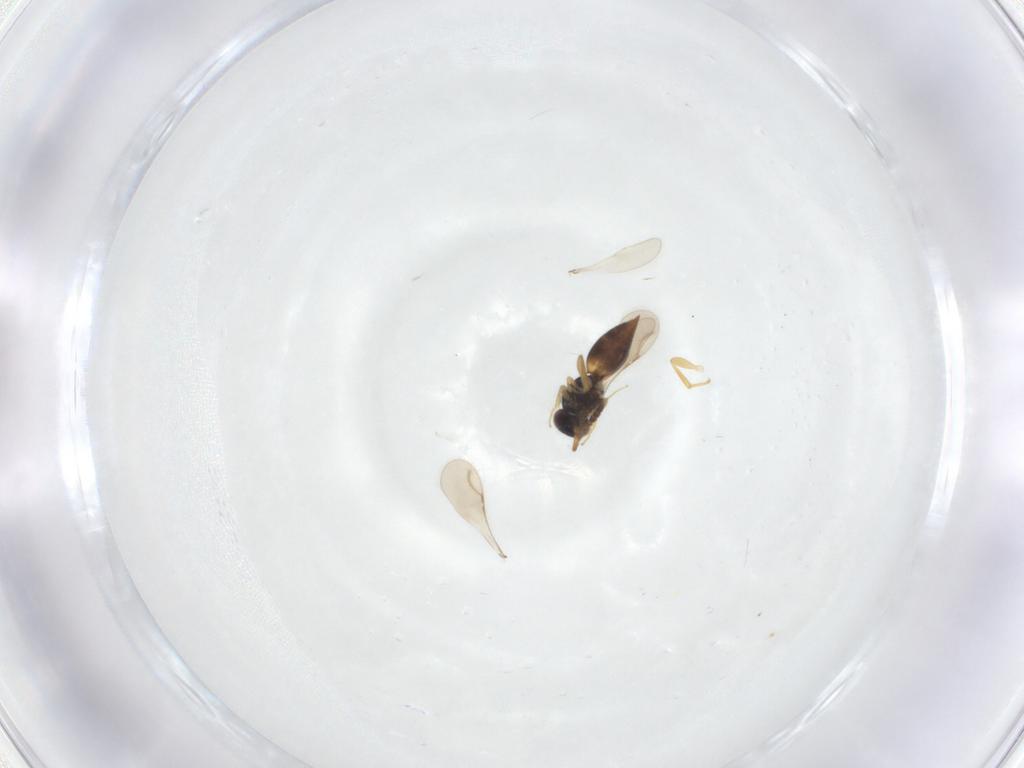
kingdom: Animalia
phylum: Arthropoda
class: Insecta
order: Hymenoptera
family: Ceraphronidae
